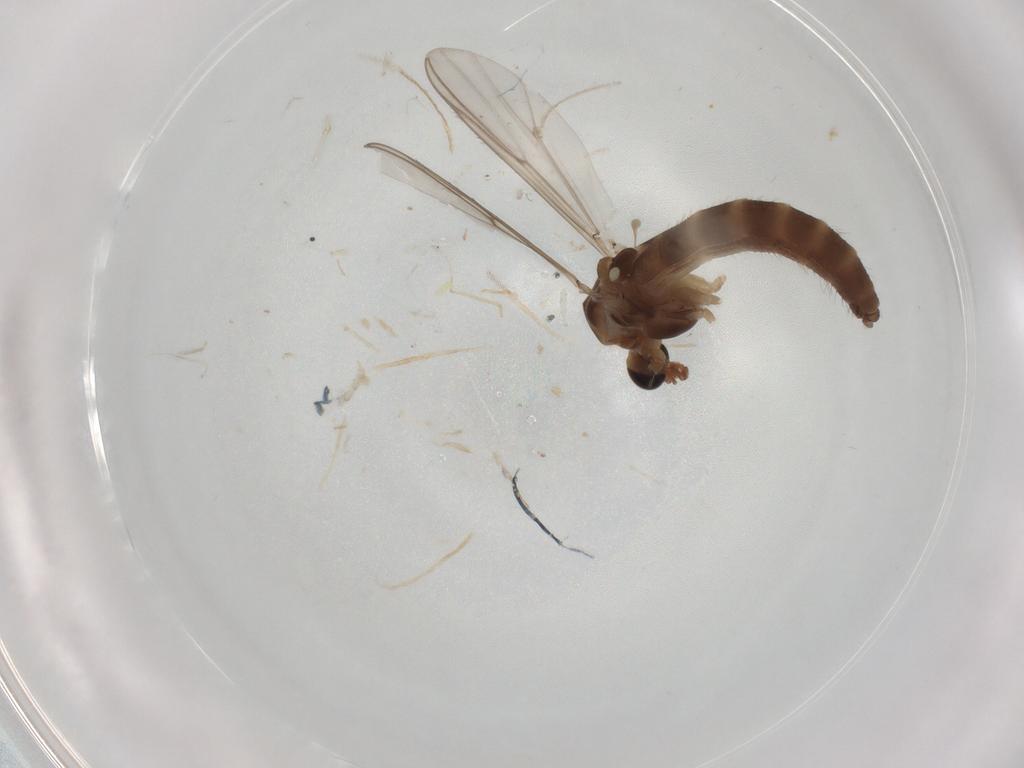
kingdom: Animalia
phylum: Arthropoda
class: Insecta
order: Diptera
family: Chironomidae
